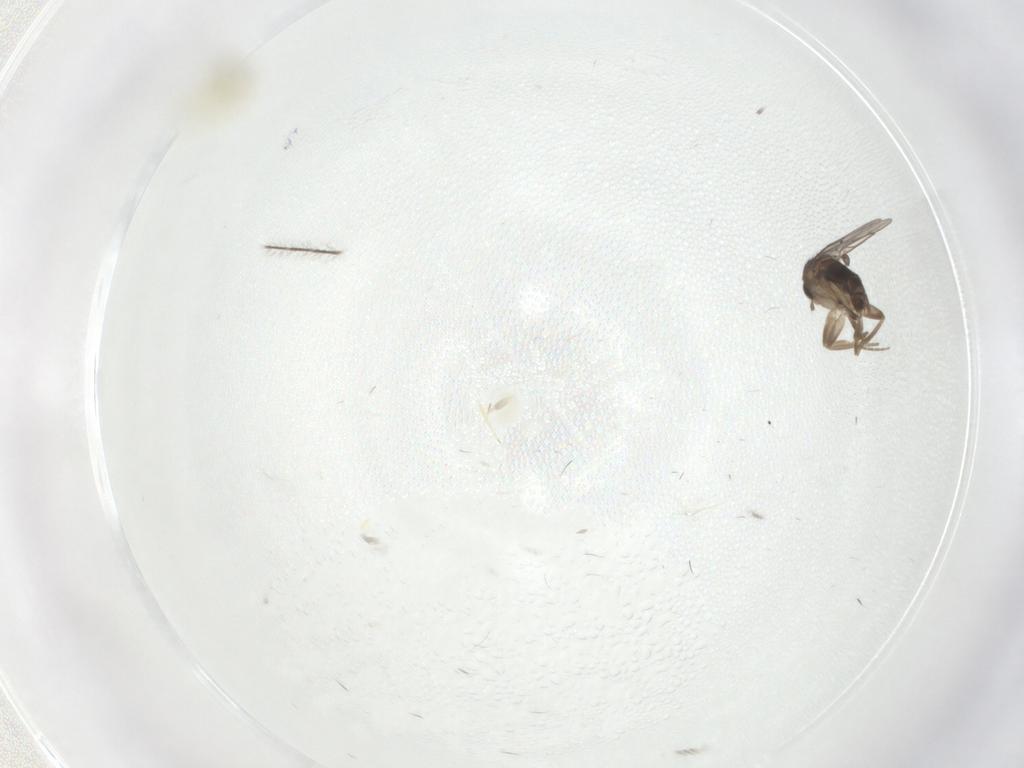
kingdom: Animalia
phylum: Arthropoda
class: Insecta
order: Diptera
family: Phoridae
